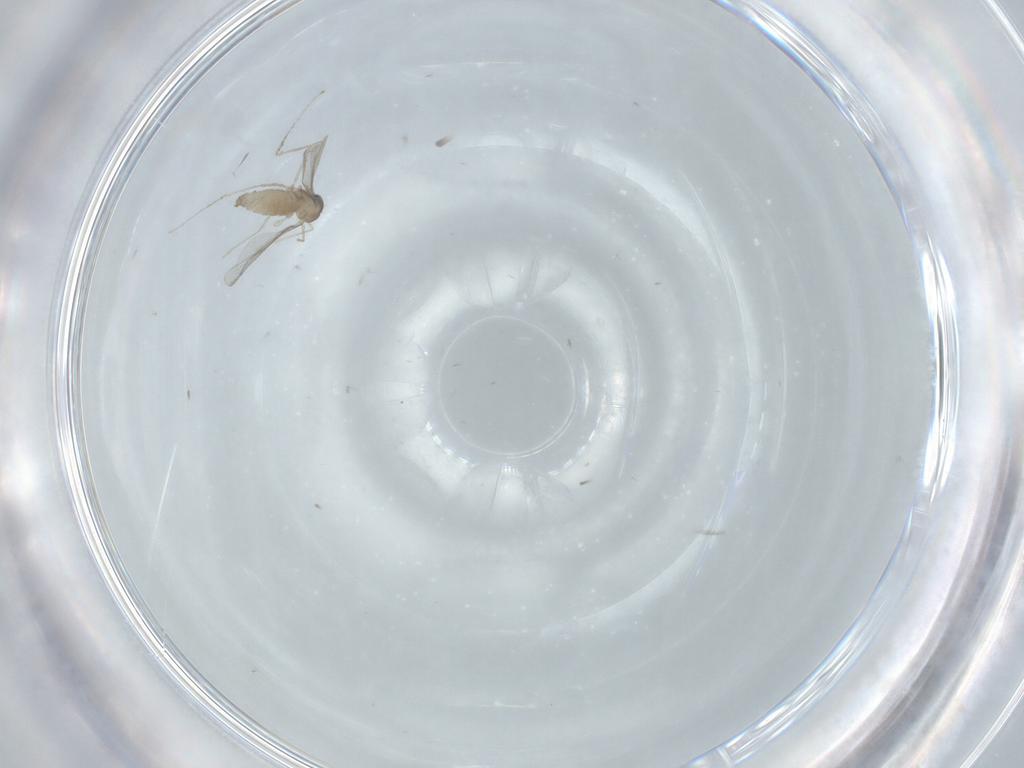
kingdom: Animalia
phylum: Arthropoda
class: Insecta
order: Diptera
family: Cecidomyiidae
